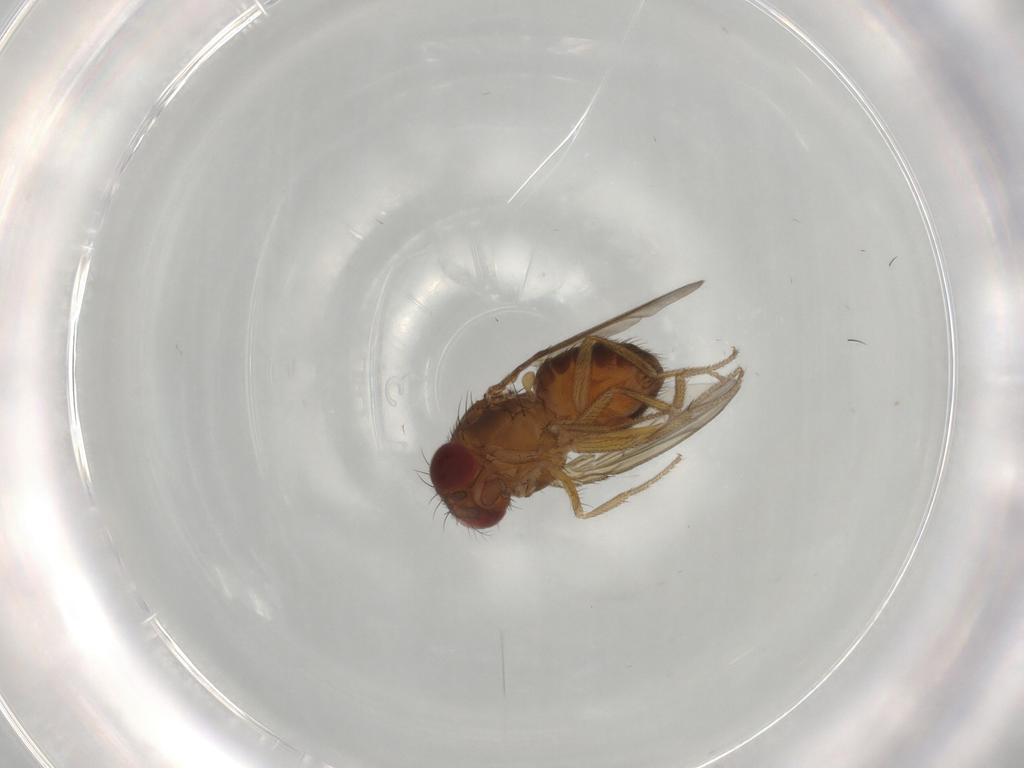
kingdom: Animalia
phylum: Arthropoda
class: Insecta
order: Diptera
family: Drosophilidae
